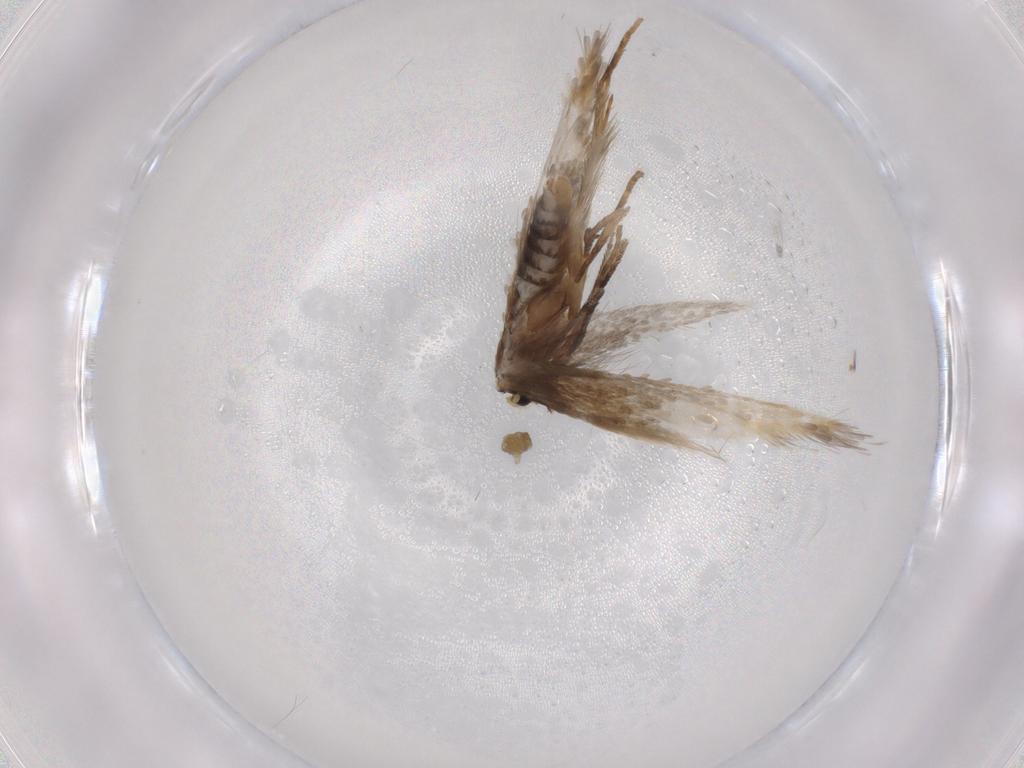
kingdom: Animalia
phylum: Arthropoda
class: Insecta
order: Lepidoptera
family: Nepticulidae
